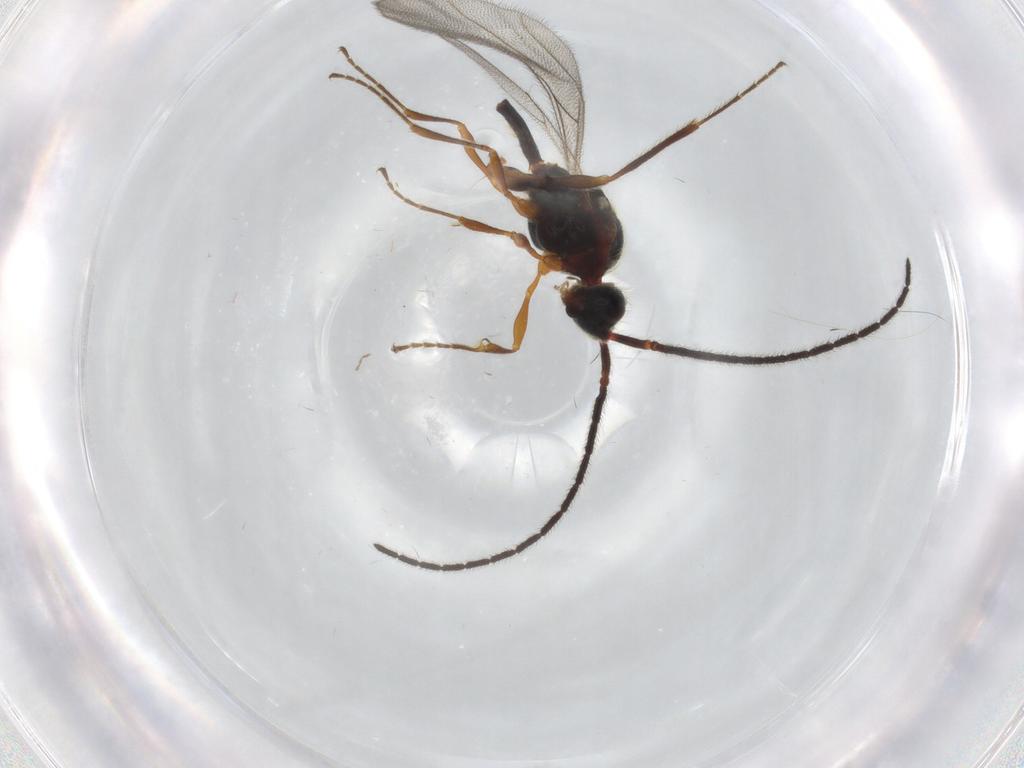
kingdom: Animalia
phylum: Arthropoda
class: Insecta
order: Hymenoptera
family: Diapriidae
